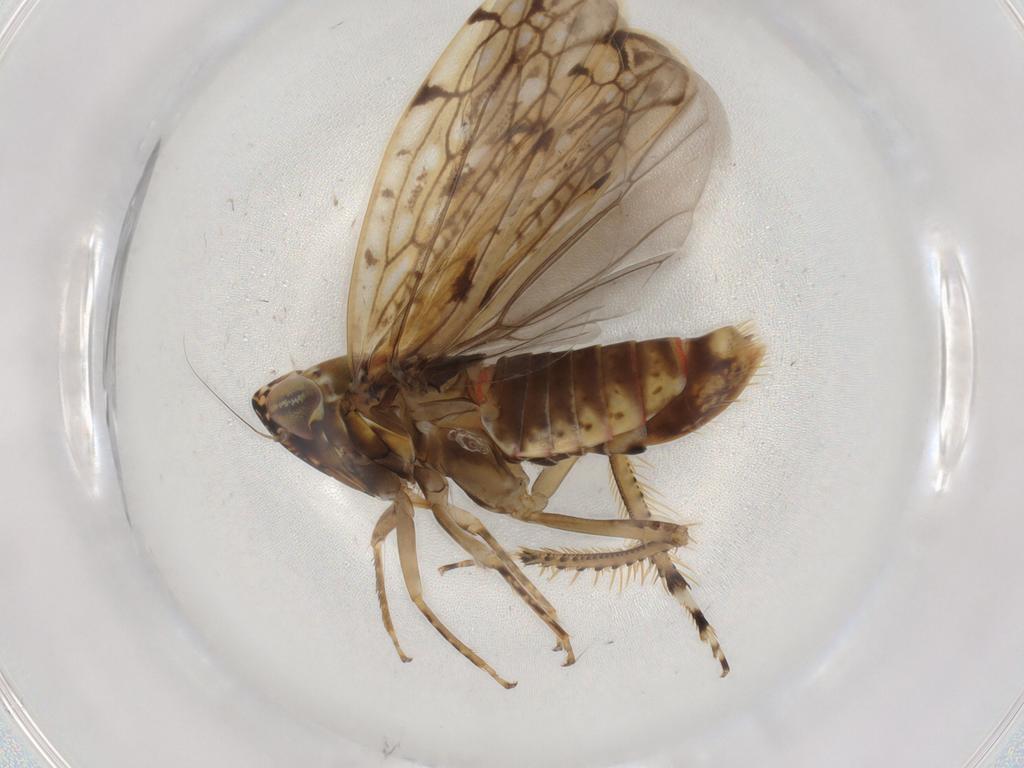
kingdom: Animalia
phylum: Arthropoda
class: Insecta
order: Hemiptera
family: Cicadellidae
